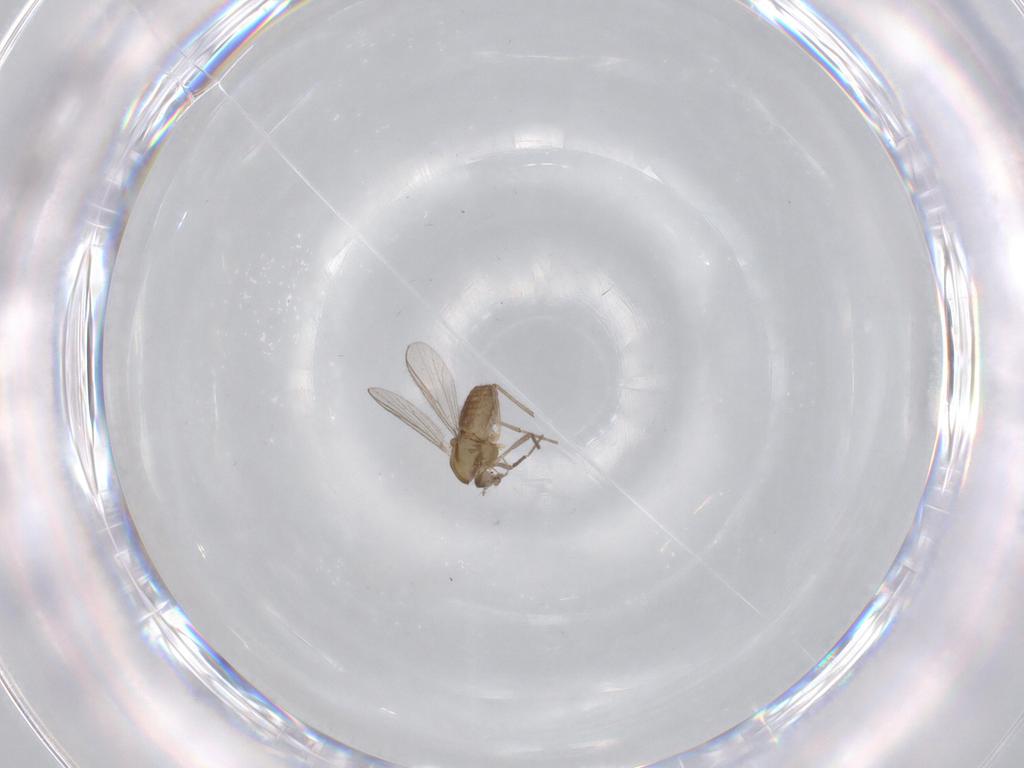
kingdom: Animalia
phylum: Arthropoda
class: Insecta
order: Diptera
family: Chironomidae
